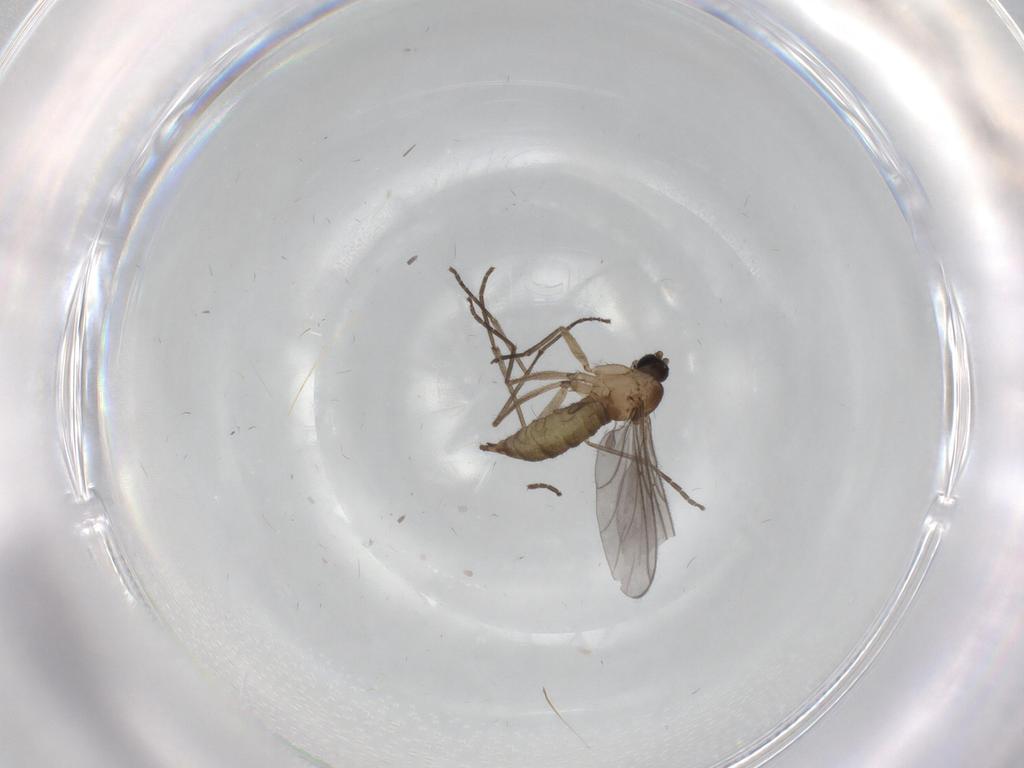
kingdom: Animalia
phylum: Arthropoda
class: Insecta
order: Diptera
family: Sciaridae
